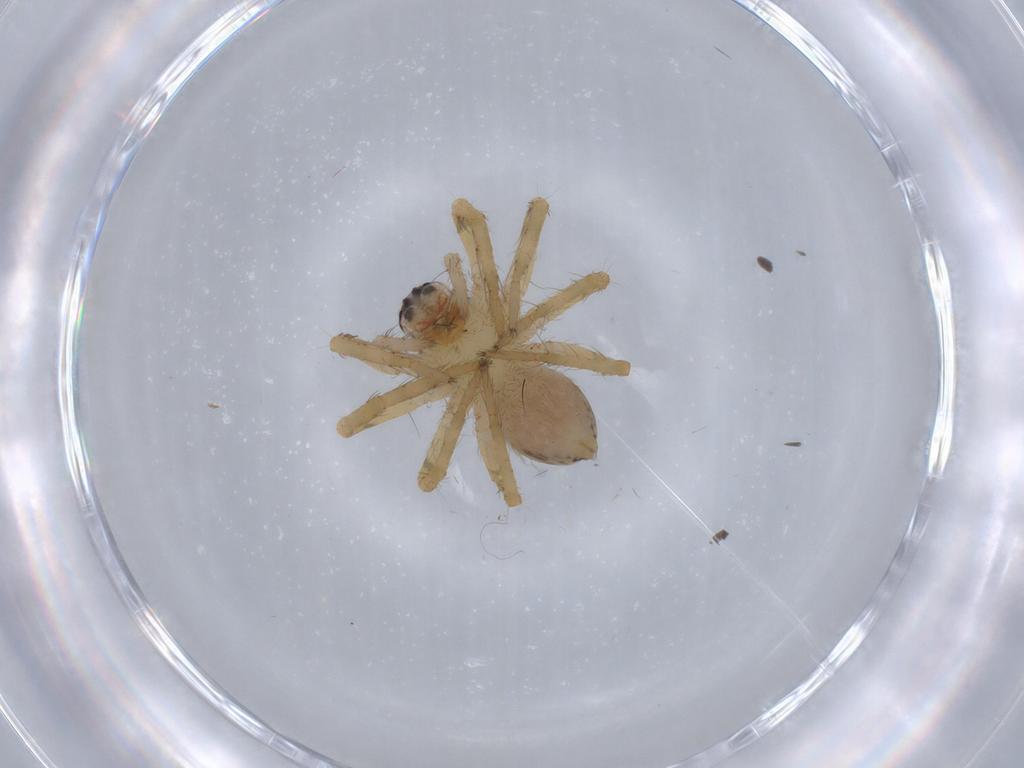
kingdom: Animalia
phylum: Arthropoda
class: Arachnida
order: Araneae
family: Ctenidae
